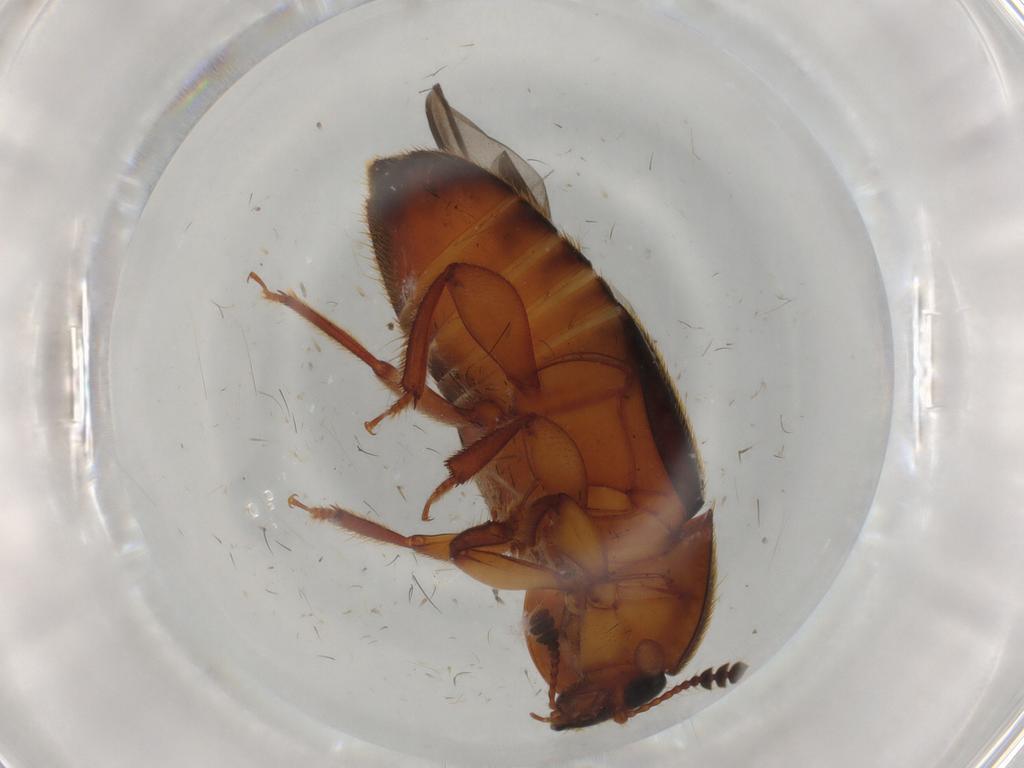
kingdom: Animalia
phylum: Arthropoda
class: Insecta
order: Coleoptera
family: Nitidulidae
